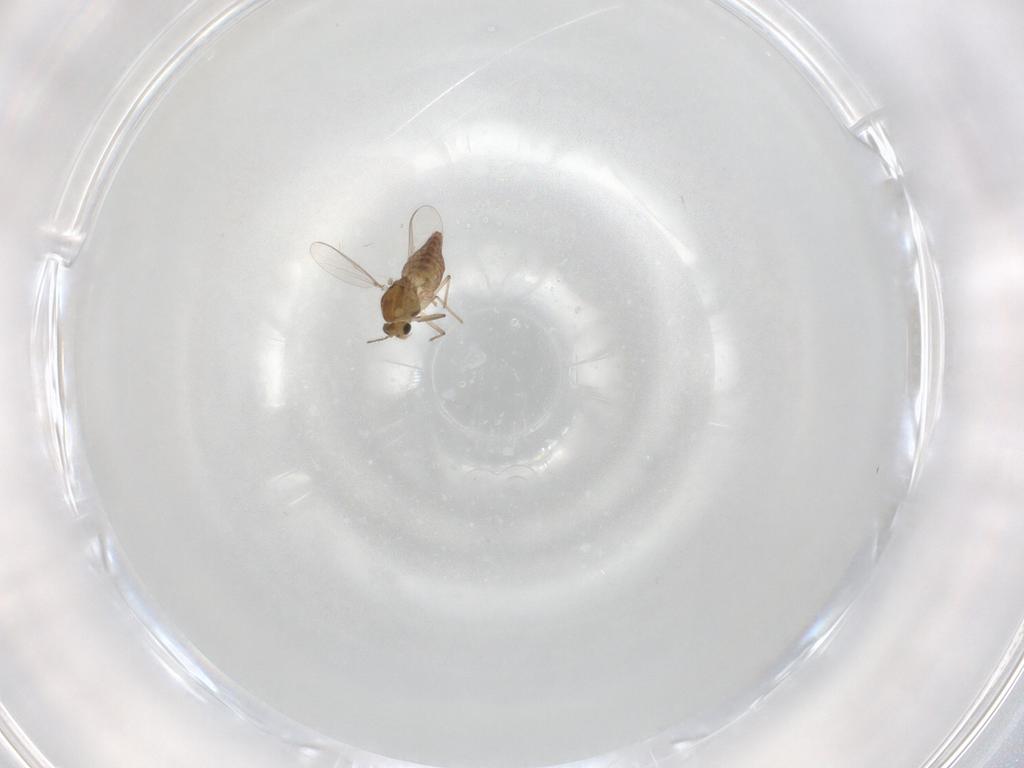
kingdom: Animalia
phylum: Arthropoda
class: Insecta
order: Diptera
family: Chironomidae
